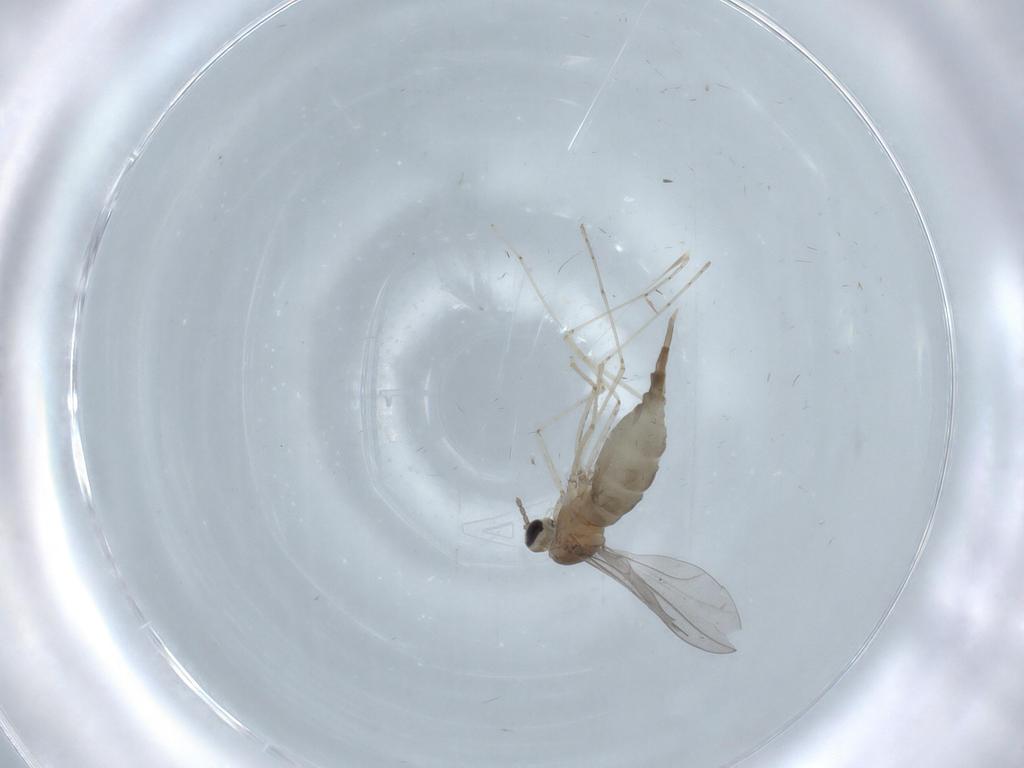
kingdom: Animalia
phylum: Arthropoda
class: Insecta
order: Diptera
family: Cecidomyiidae
